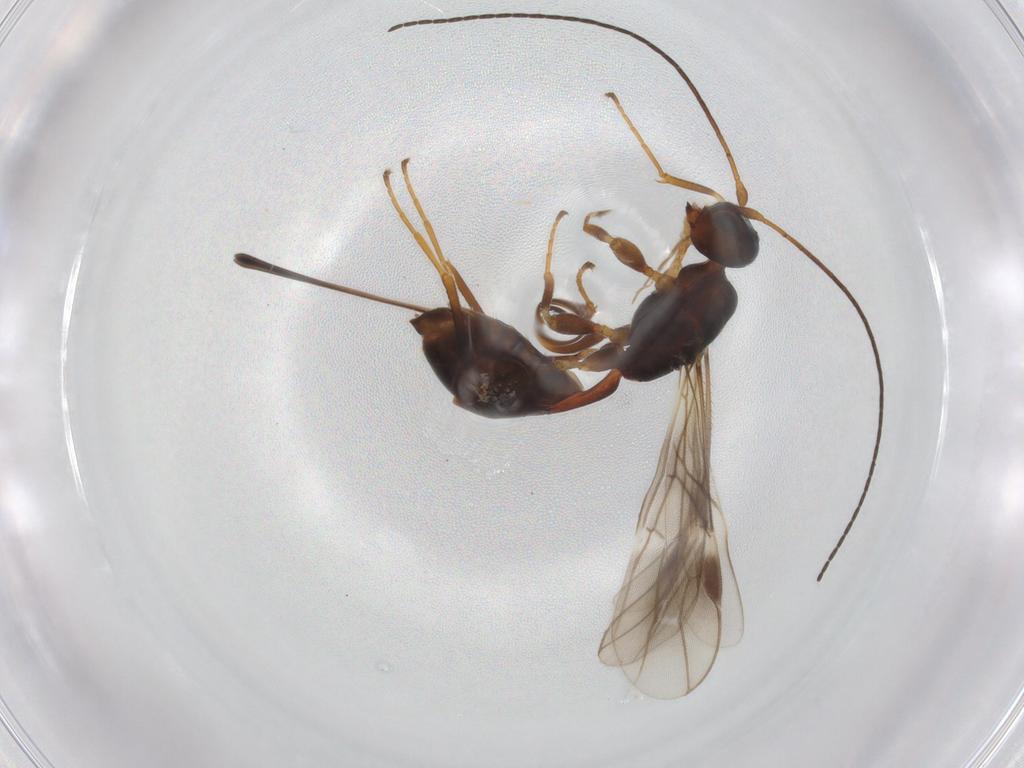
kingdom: Animalia
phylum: Arthropoda
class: Insecta
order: Hymenoptera
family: Braconidae
